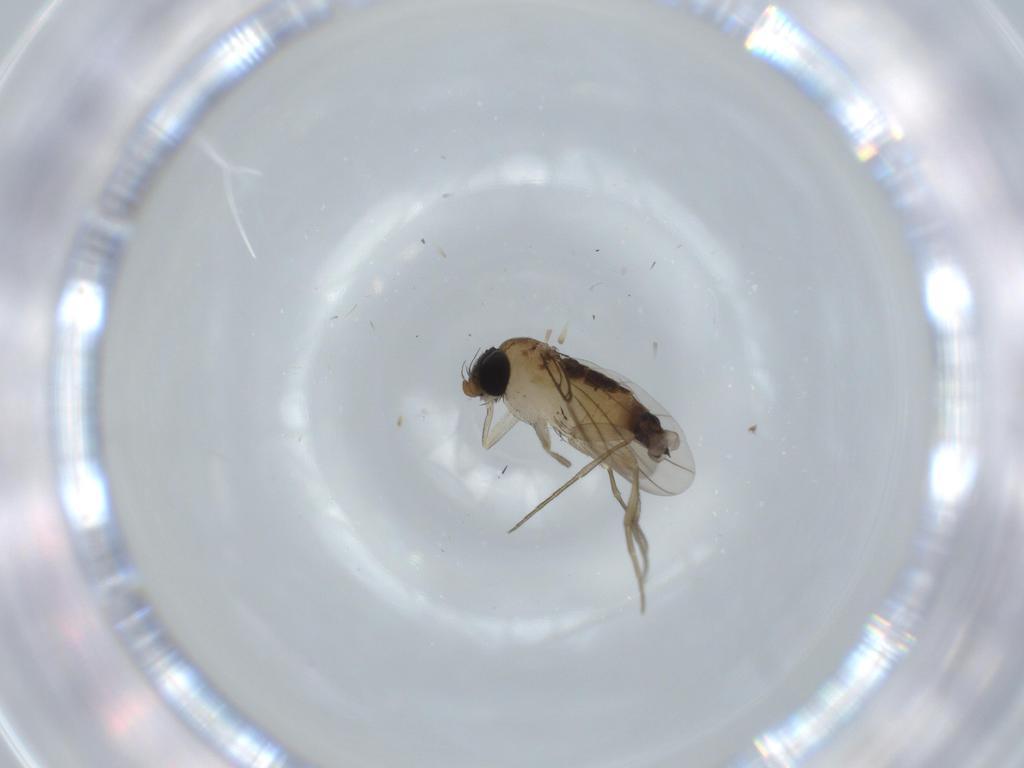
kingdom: Animalia
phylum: Arthropoda
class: Insecta
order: Diptera
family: Phoridae
